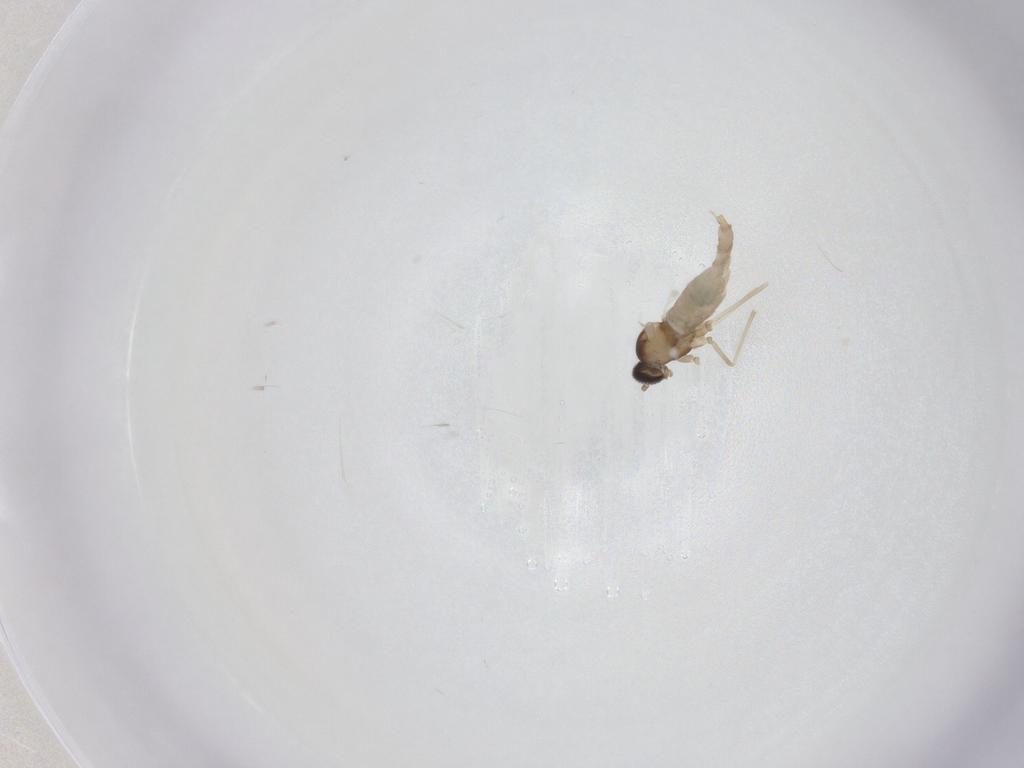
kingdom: Animalia
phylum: Arthropoda
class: Insecta
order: Diptera
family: Cecidomyiidae
